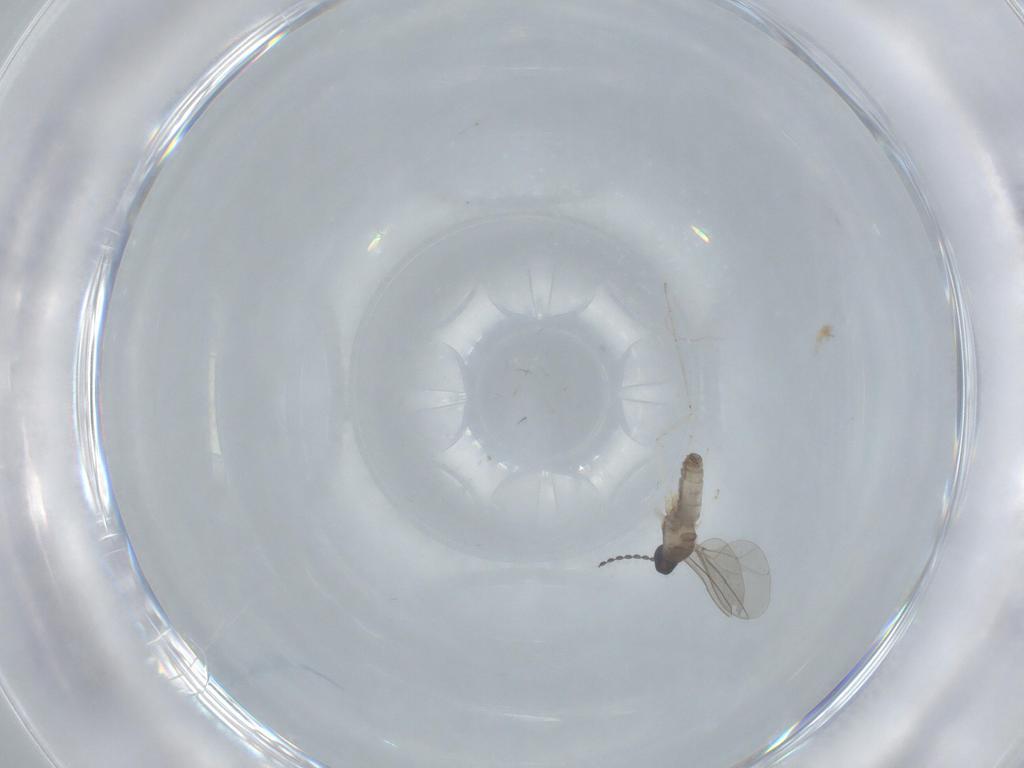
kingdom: Animalia
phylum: Arthropoda
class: Insecta
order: Diptera
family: Cecidomyiidae
